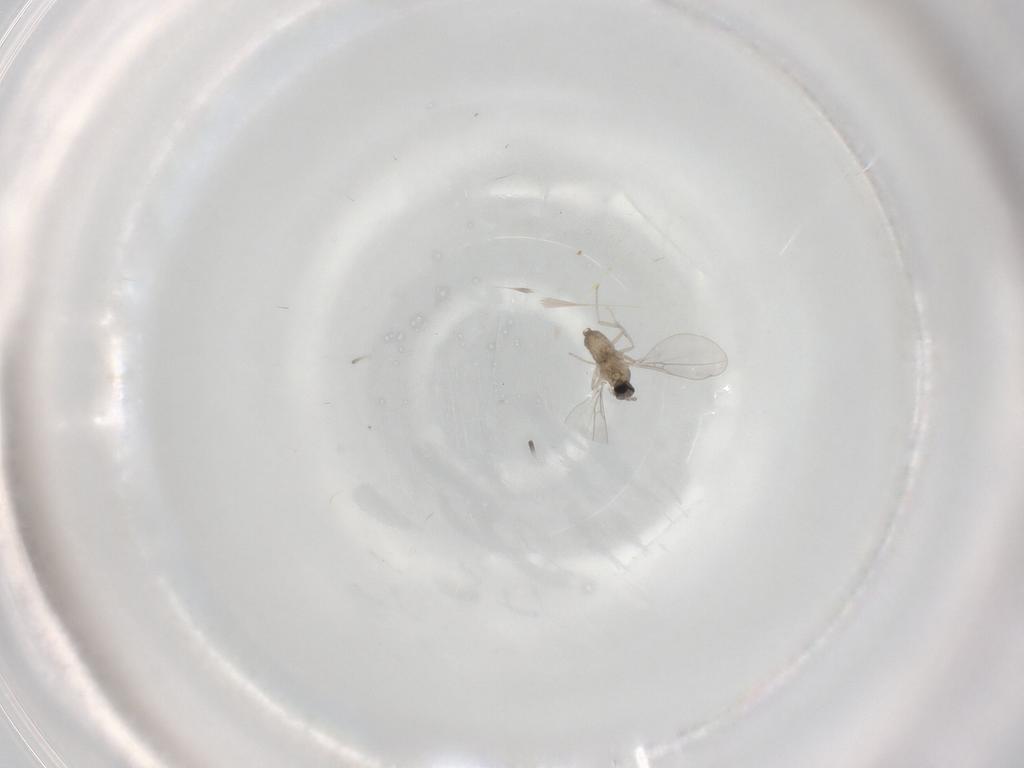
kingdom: Animalia
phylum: Arthropoda
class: Insecta
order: Diptera
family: Cecidomyiidae
